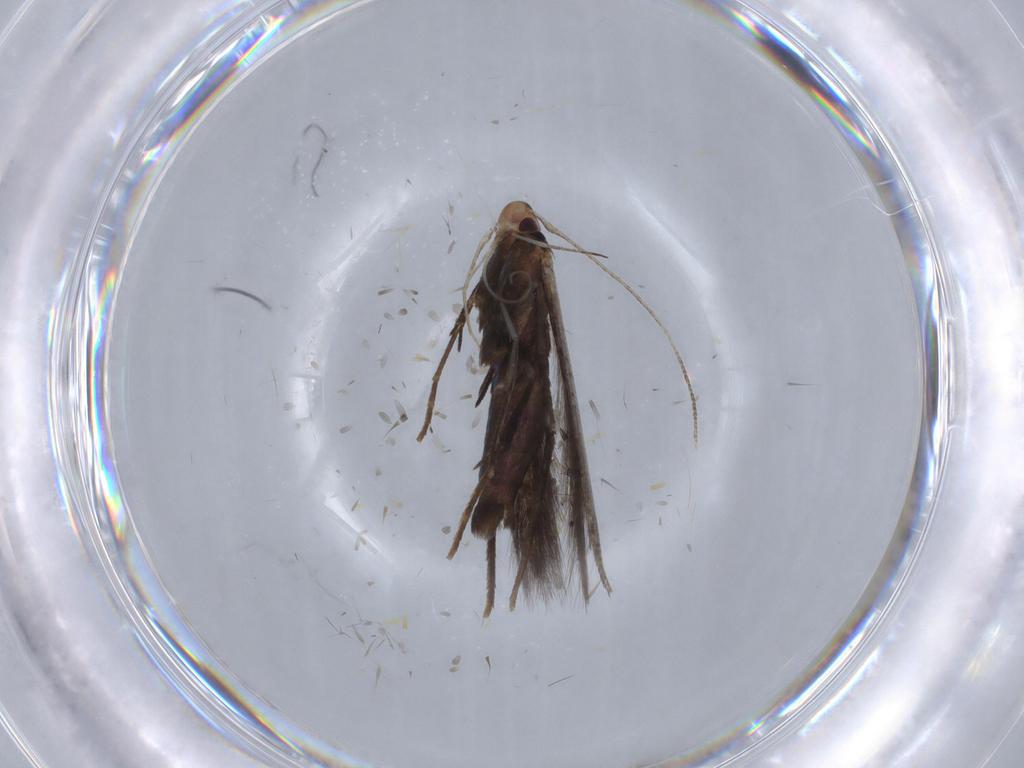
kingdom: Animalia
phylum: Arthropoda
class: Insecta
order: Lepidoptera
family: Cosmopterigidae
